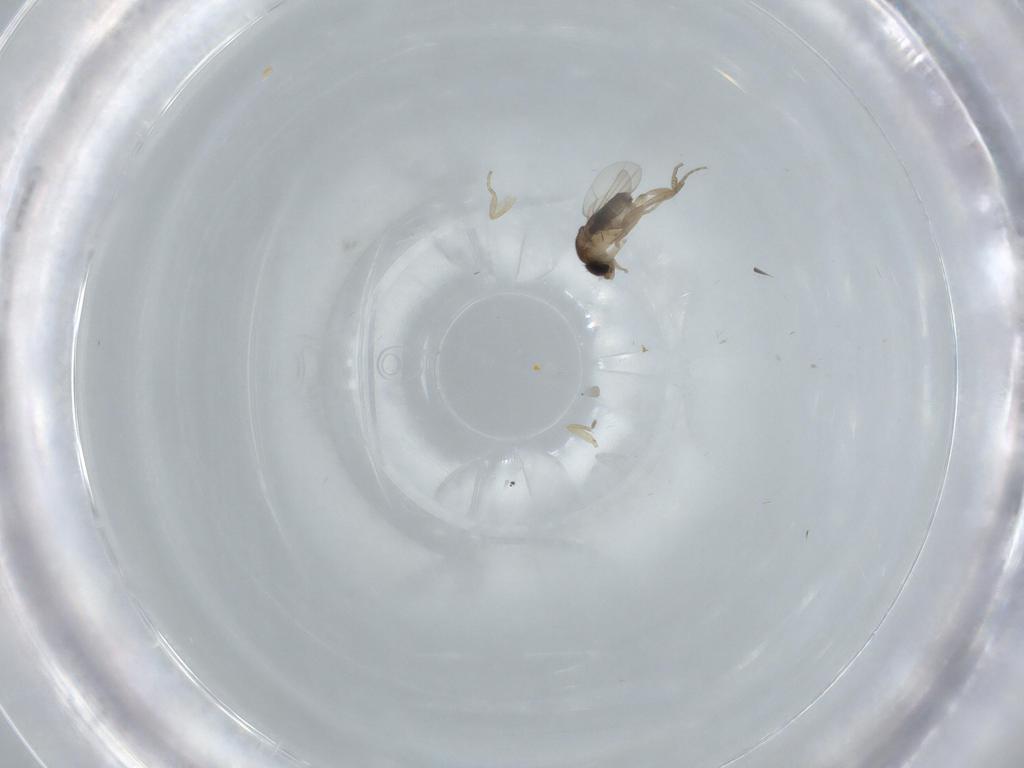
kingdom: Animalia
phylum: Arthropoda
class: Insecta
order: Diptera
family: Phoridae
